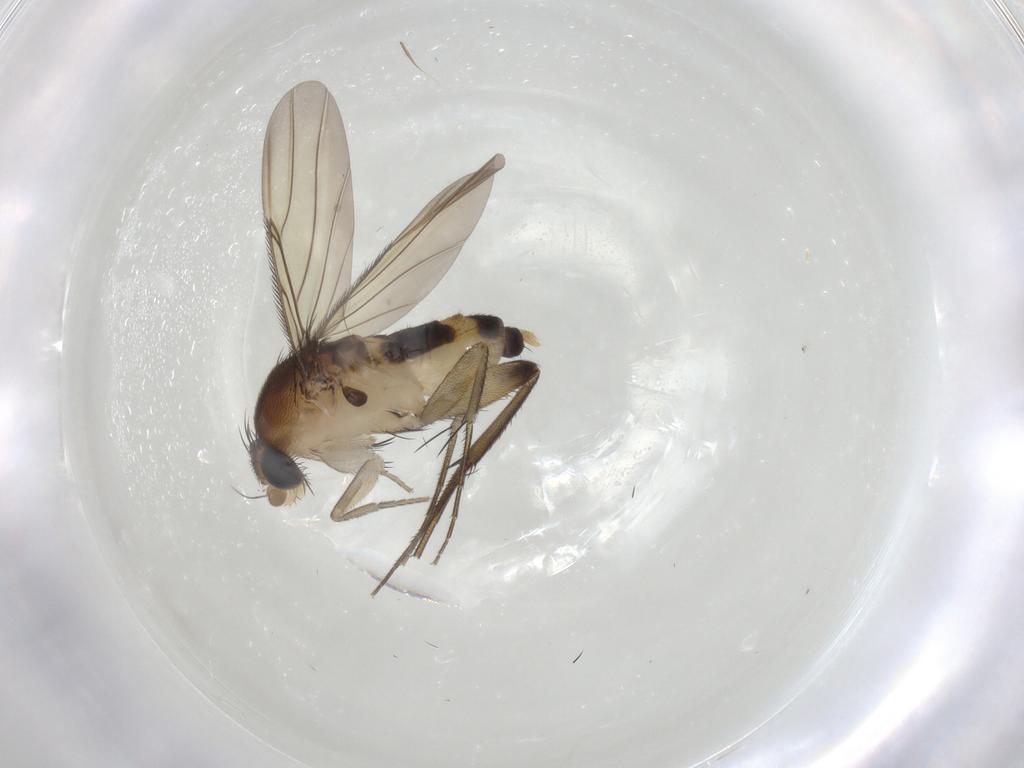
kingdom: Animalia
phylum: Arthropoda
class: Insecta
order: Diptera
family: Phoridae
